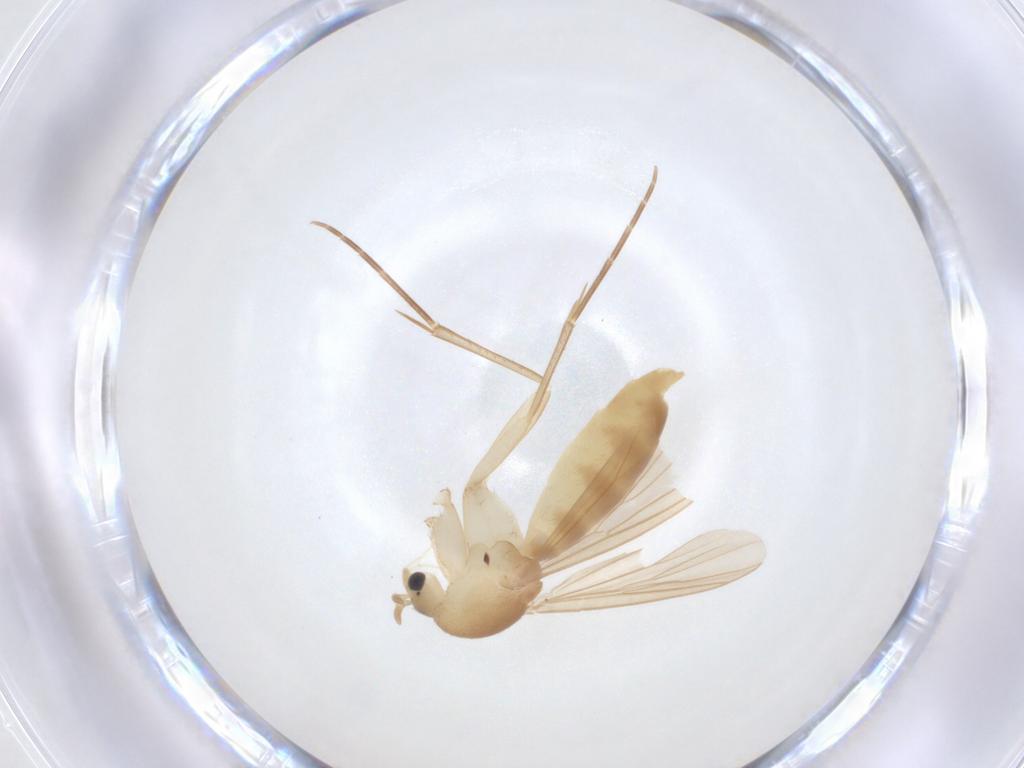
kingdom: Animalia
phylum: Arthropoda
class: Insecta
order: Diptera
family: Mycetophilidae
